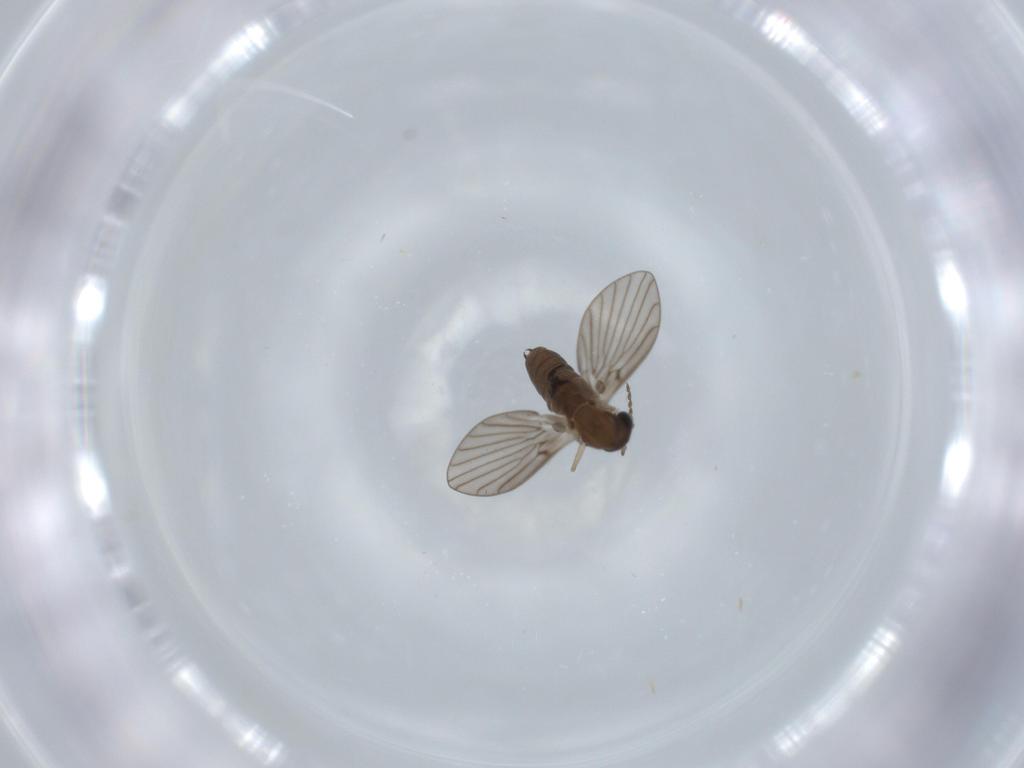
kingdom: Animalia
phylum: Arthropoda
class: Insecta
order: Diptera
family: Psychodidae
